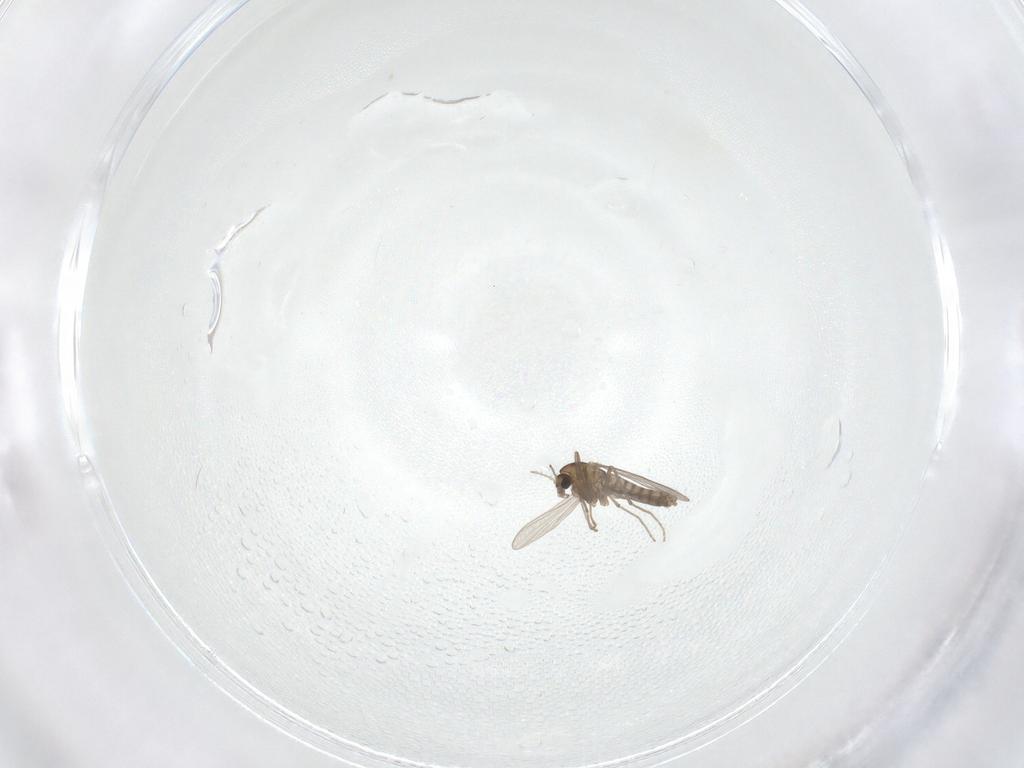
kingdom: Animalia
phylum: Arthropoda
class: Insecta
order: Diptera
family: Chironomidae
